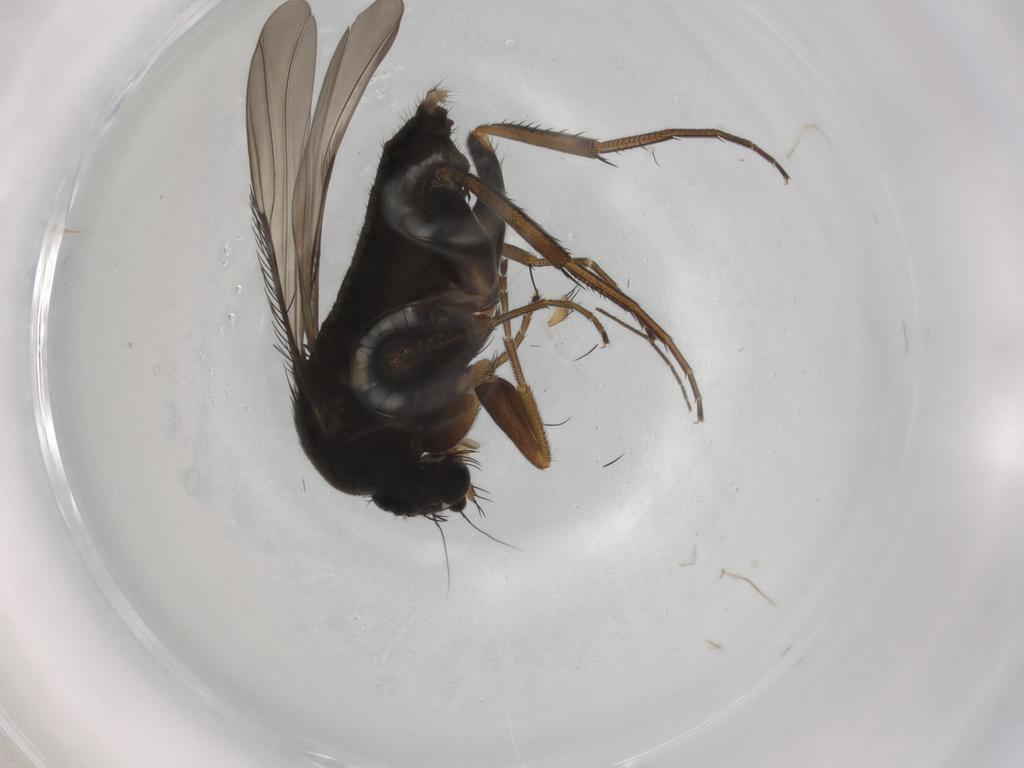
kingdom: Animalia
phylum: Arthropoda
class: Insecta
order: Diptera
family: Phoridae
